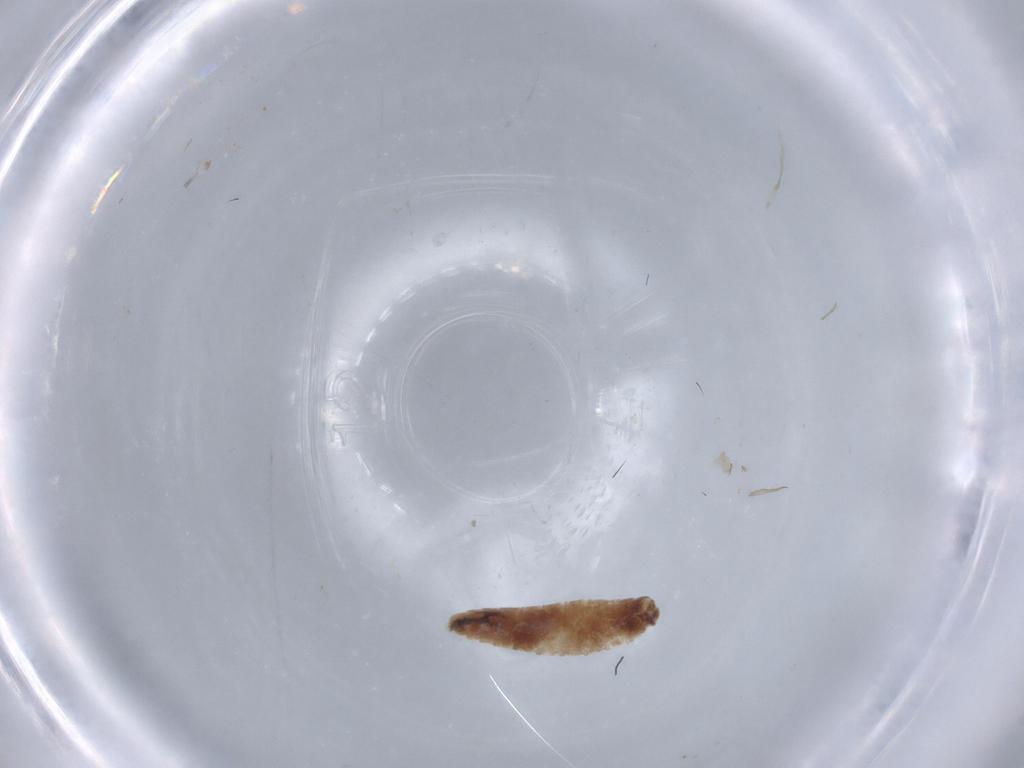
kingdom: Animalia
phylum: Arthropoda
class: Insecta
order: Diptera
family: Sarcophagidae
